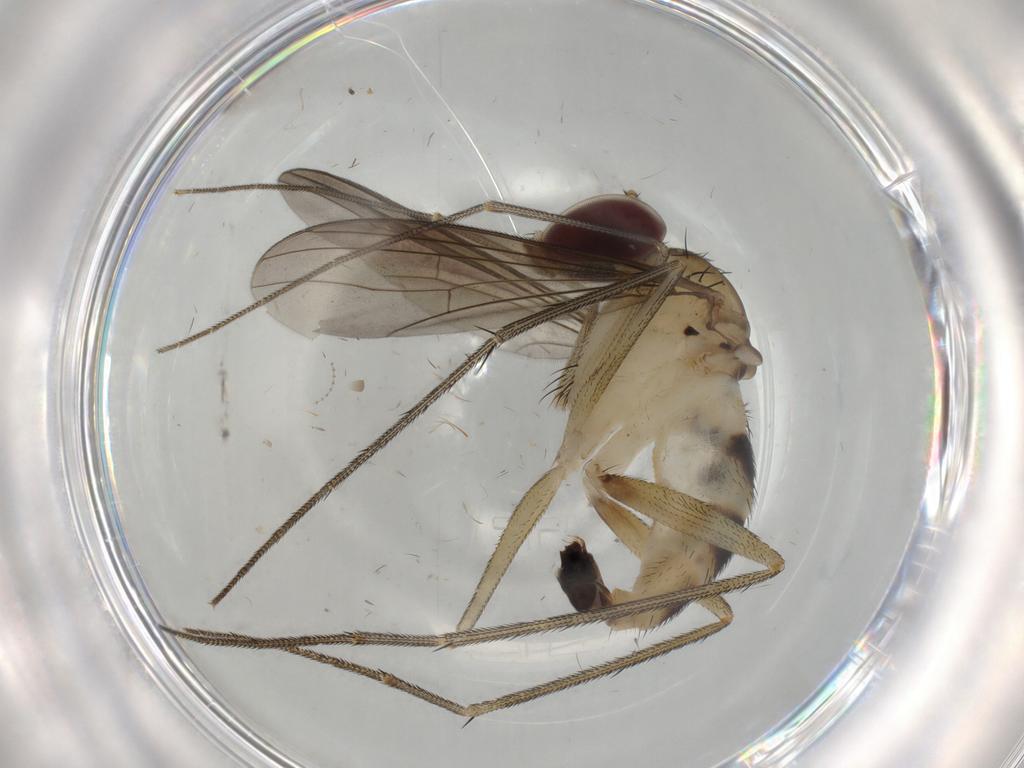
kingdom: Animalia
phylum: Arthropoda
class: Insecta
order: Diptera
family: Dolichopodidae
